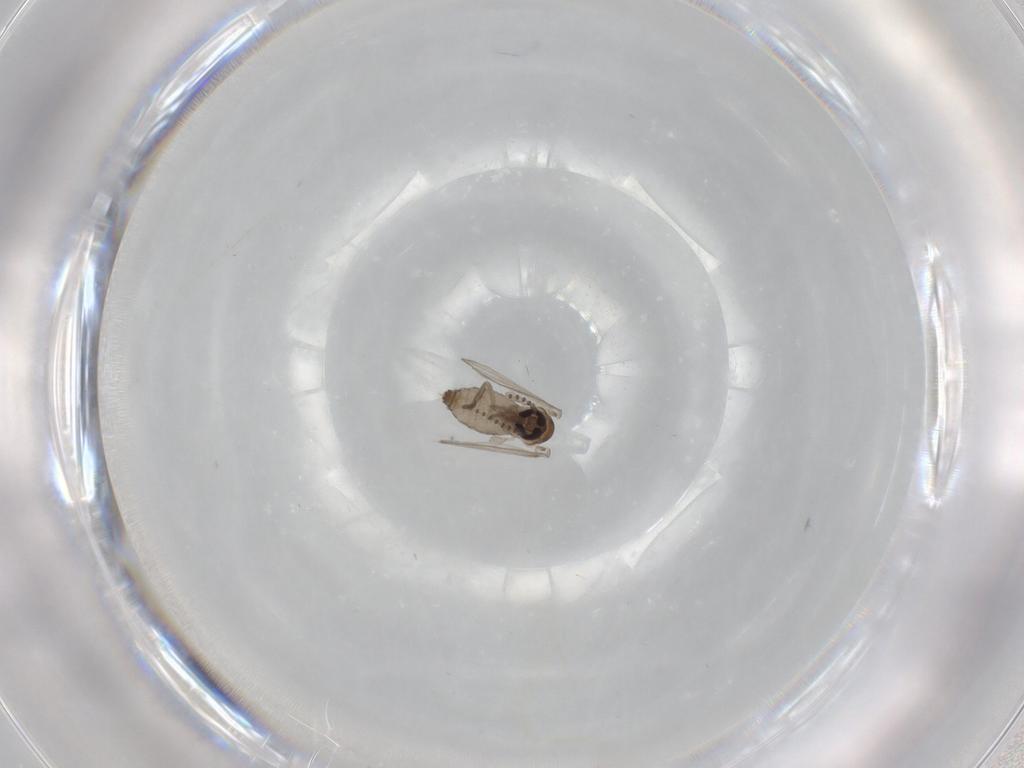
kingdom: Animalia
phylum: Arthropoda
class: Insecta
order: Diptera
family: Psychodidae
